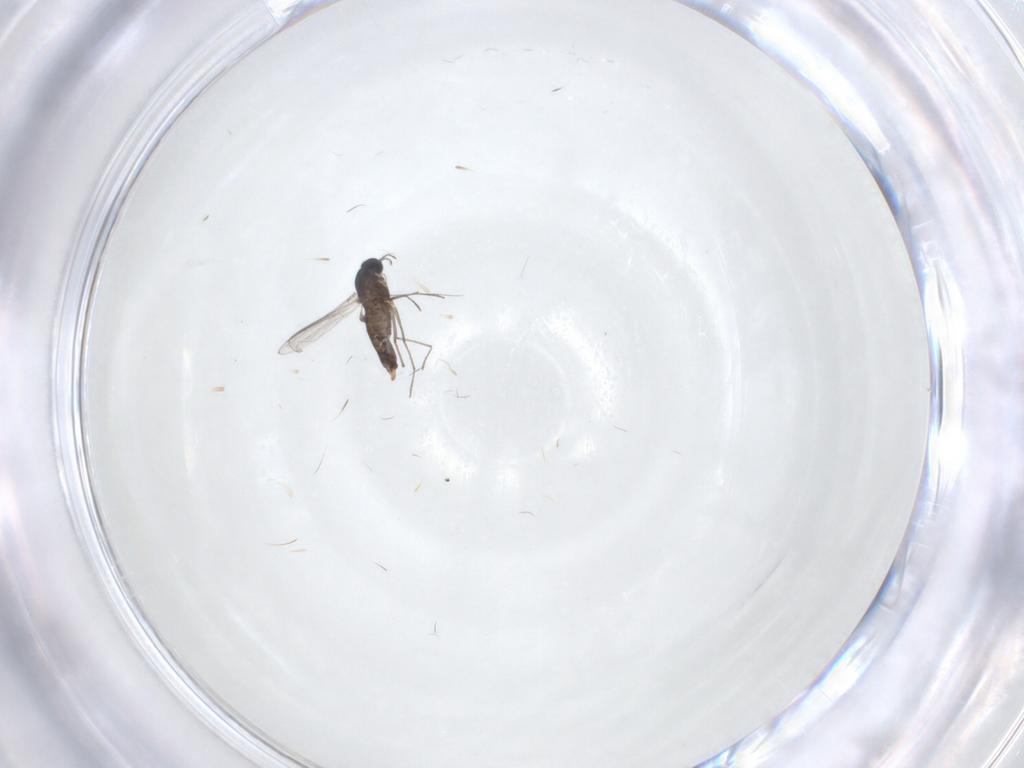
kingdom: Animalia
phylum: Arthropoda
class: Insecta
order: Diptera
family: Chironomidae
